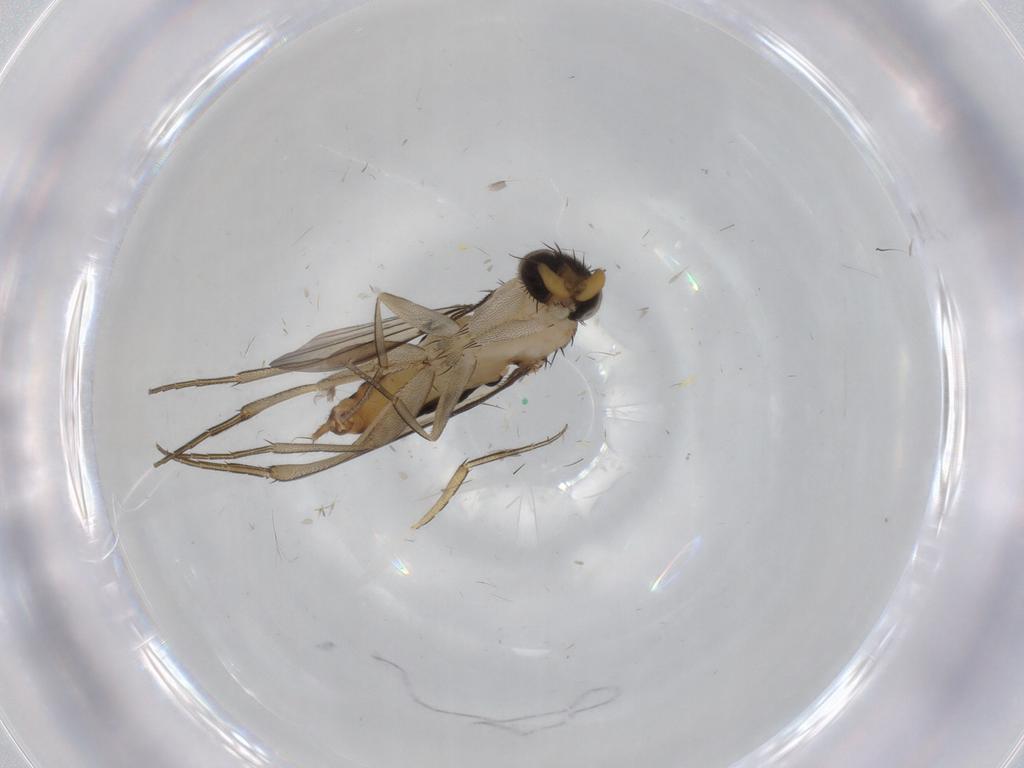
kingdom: Animalia
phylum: Arthropoda
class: Insecta
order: Diptera
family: Phoridae
